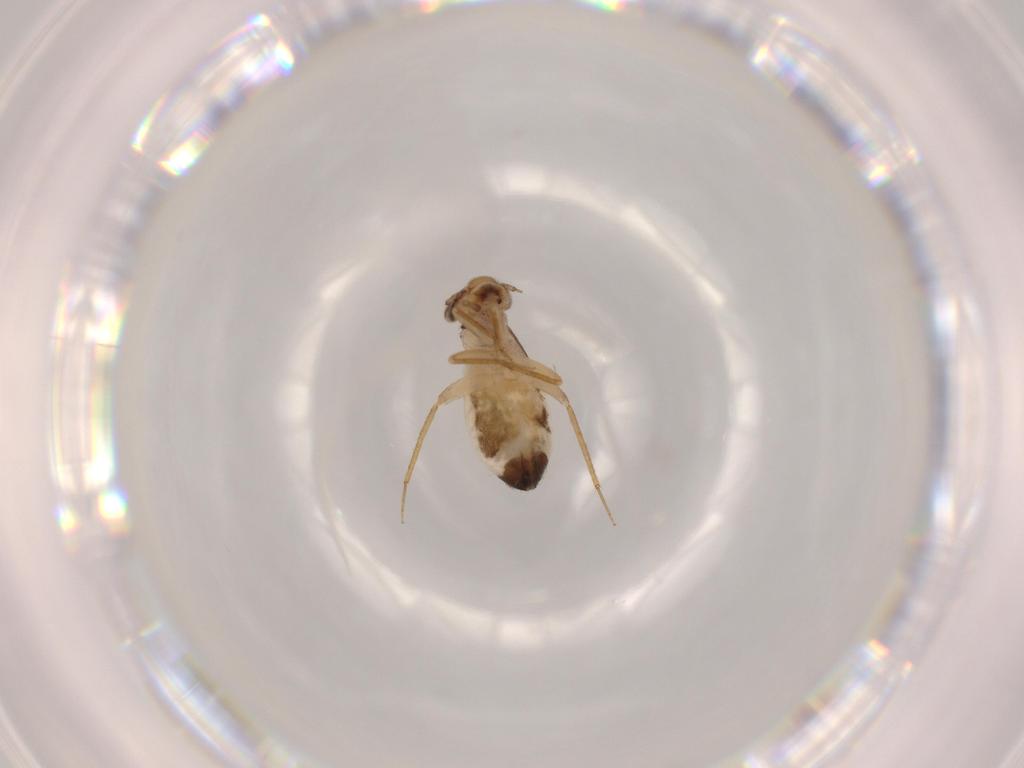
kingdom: Animalia
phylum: Arthropoda
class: Insecta
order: Psocodea
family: Lepidopsocidae
